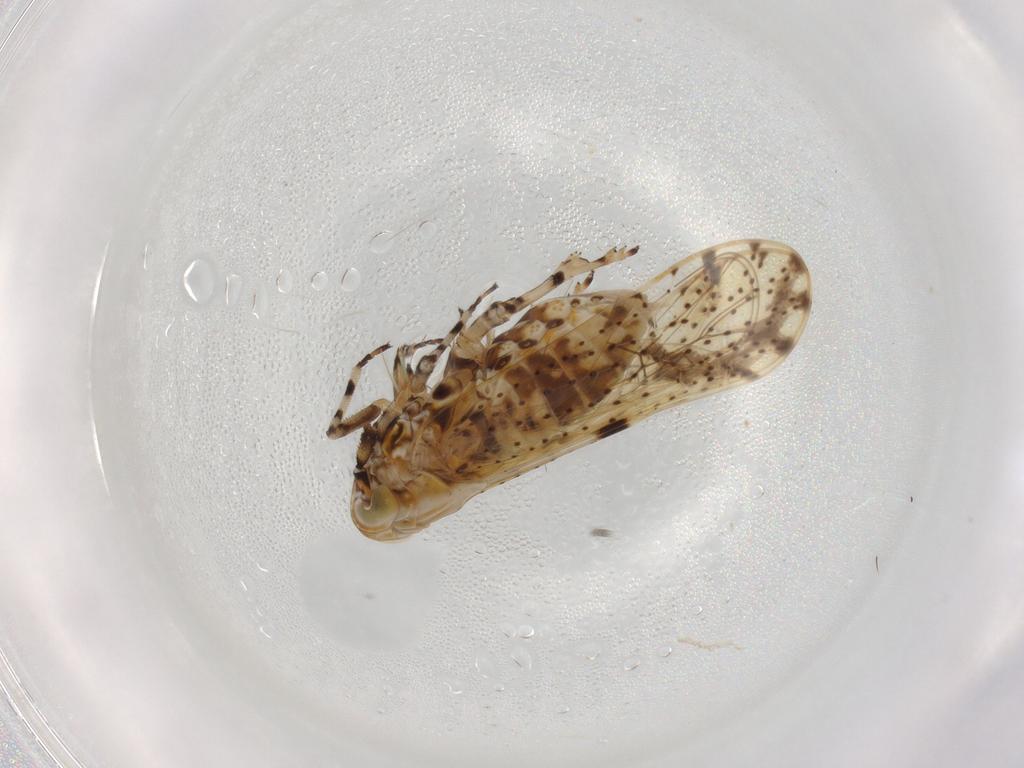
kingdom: Animalia
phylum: Arthropoda
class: Insecta
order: Hemiptera
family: Delphacidae
